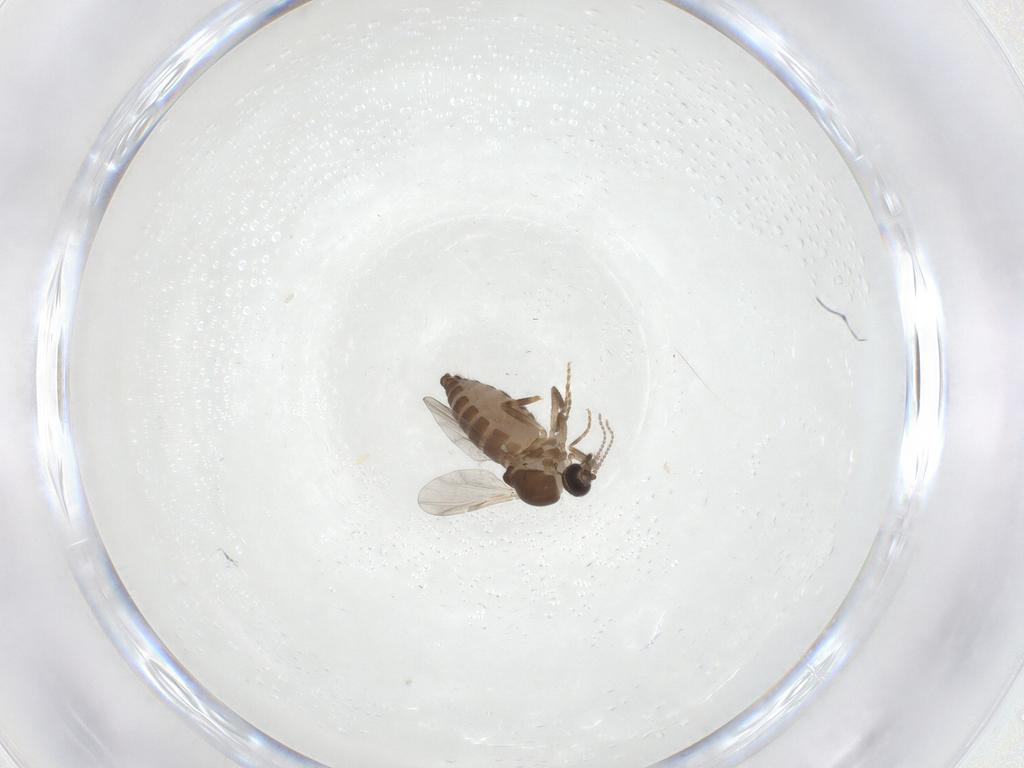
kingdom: Animalia
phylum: Arthropoda
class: Insecta
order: Diptera
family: Ceratopogonidae
